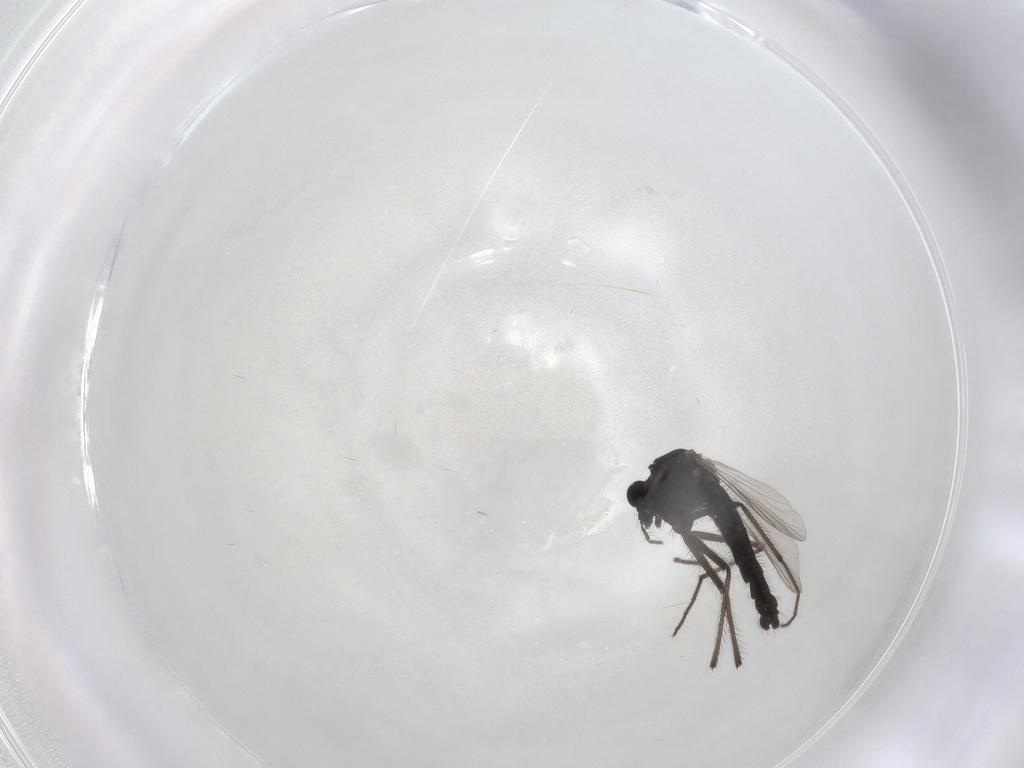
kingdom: Animalia
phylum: Arthropoda
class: Insecta
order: Diptera
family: Chironomidae
